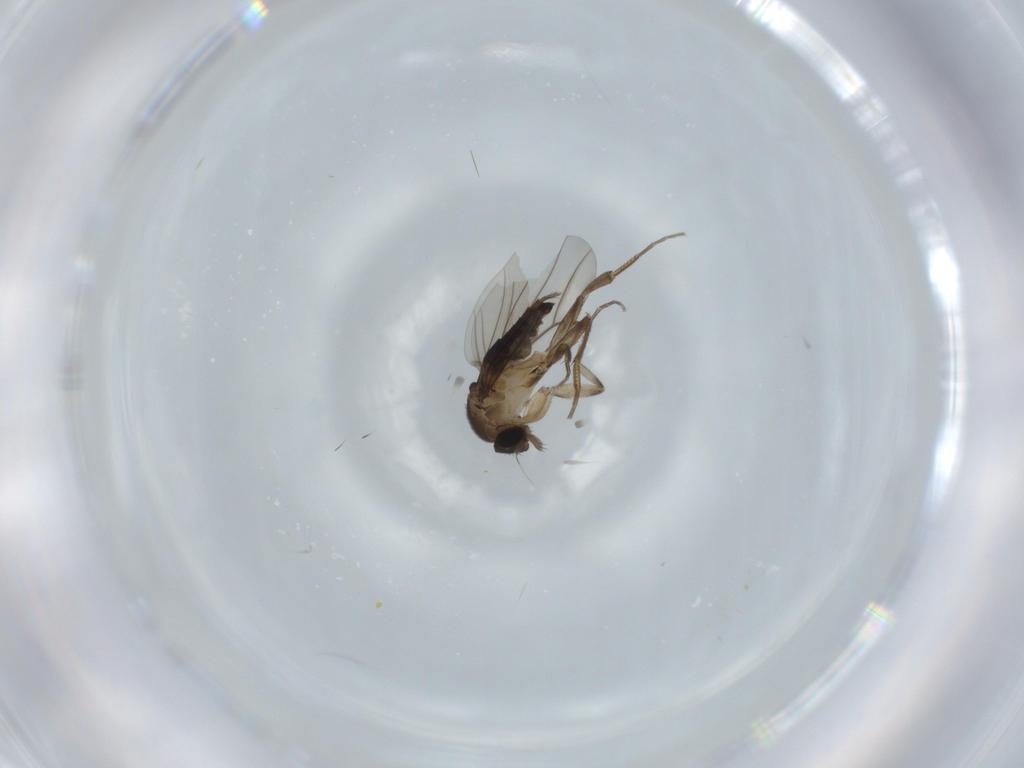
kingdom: Animalia
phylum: Arthropoda
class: Insecta
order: Diptera
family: Phoridae
